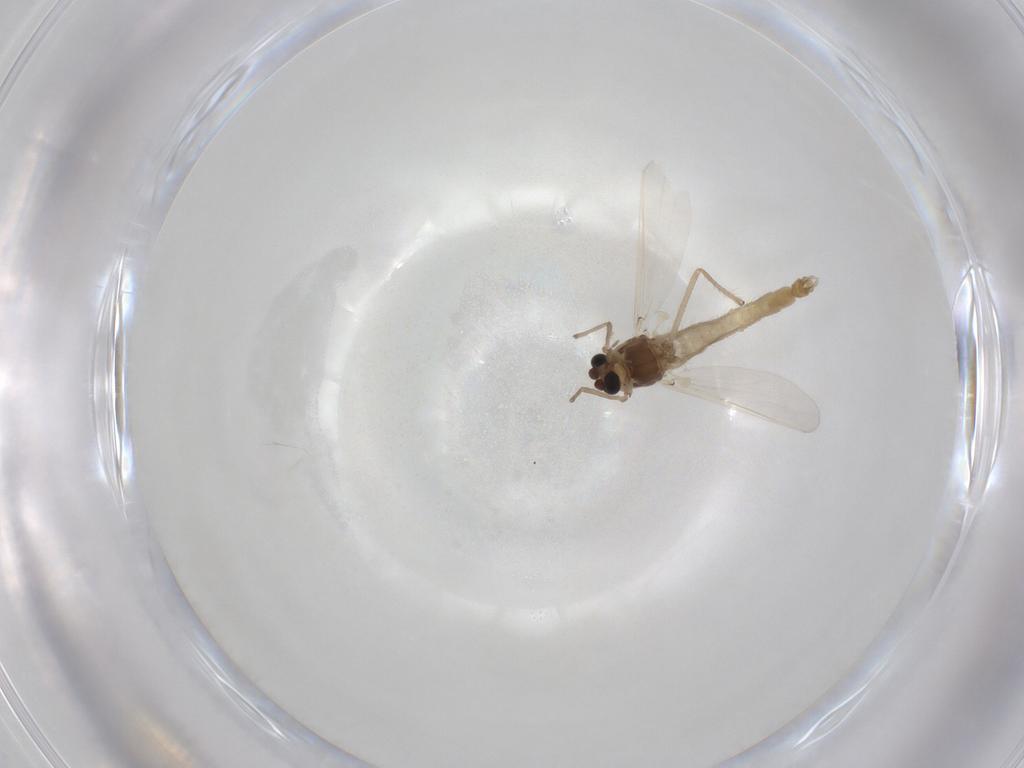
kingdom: Animalia
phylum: Arthropoda
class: Insecta
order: Diptera
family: Chironomidae
